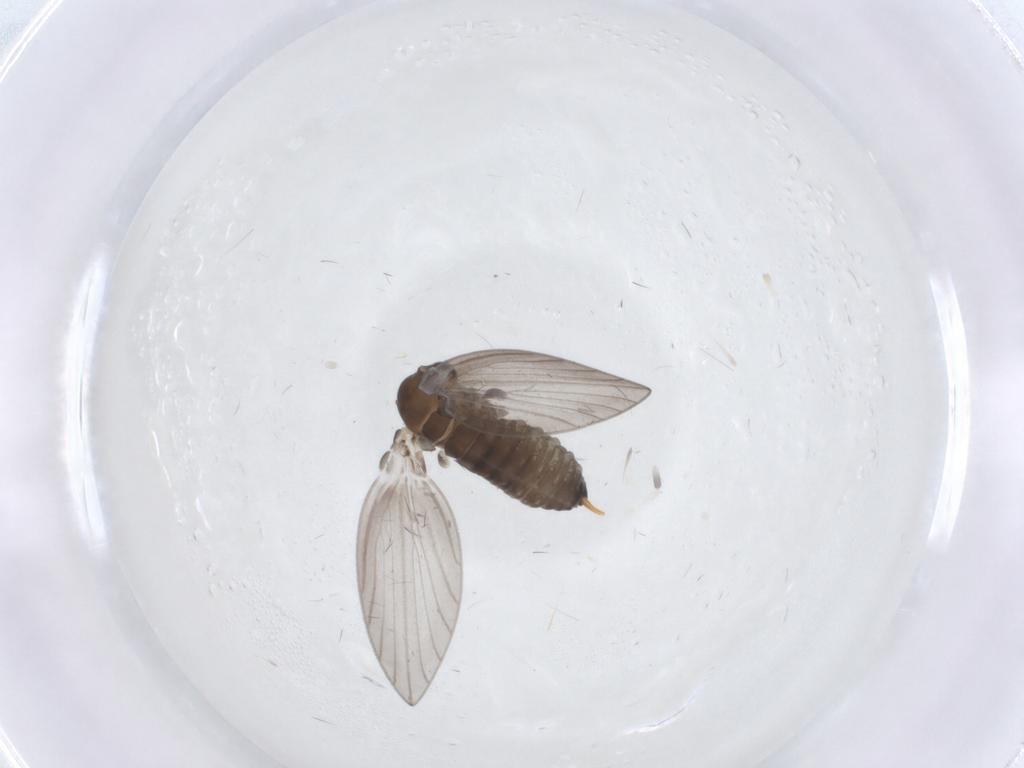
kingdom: Animalia
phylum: Arthropoda
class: Insecta
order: Diptera
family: Psychodidae
